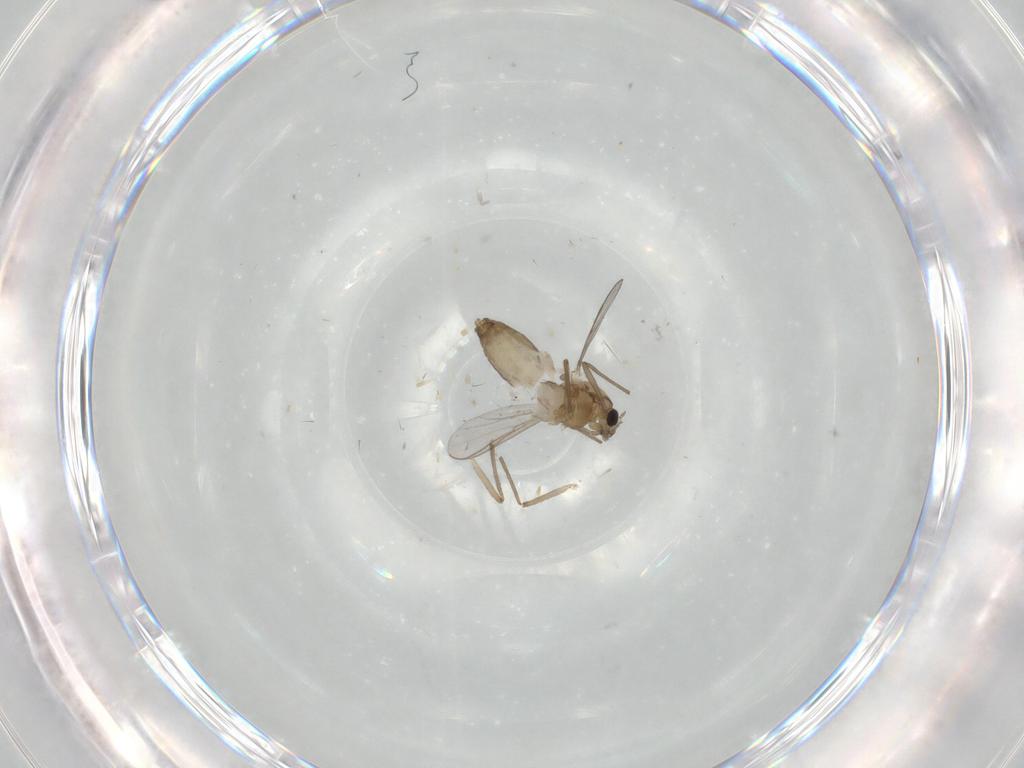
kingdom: Animalia
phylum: Arthropoda
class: Insecta
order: Diptera
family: Chironomidae
